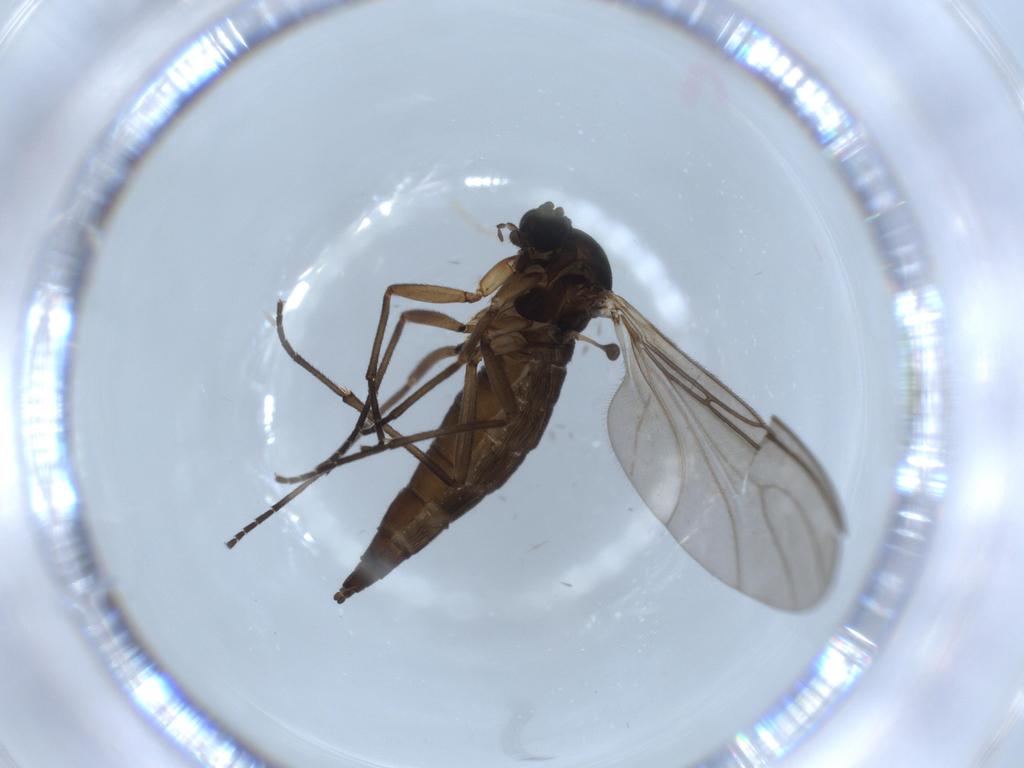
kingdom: Animalia
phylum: Arthropoda
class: Insecta
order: Diptera
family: Sciaridae
